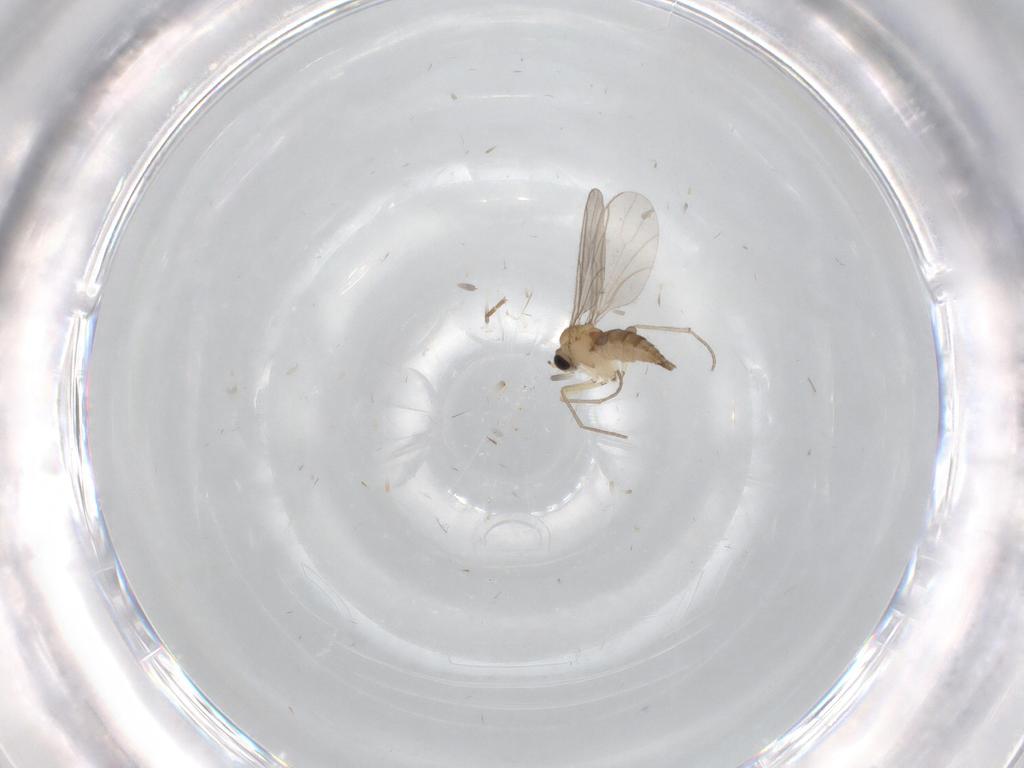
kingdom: Animalia
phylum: Arthropoda
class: Insecta
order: Diptera
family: Sciaridae
